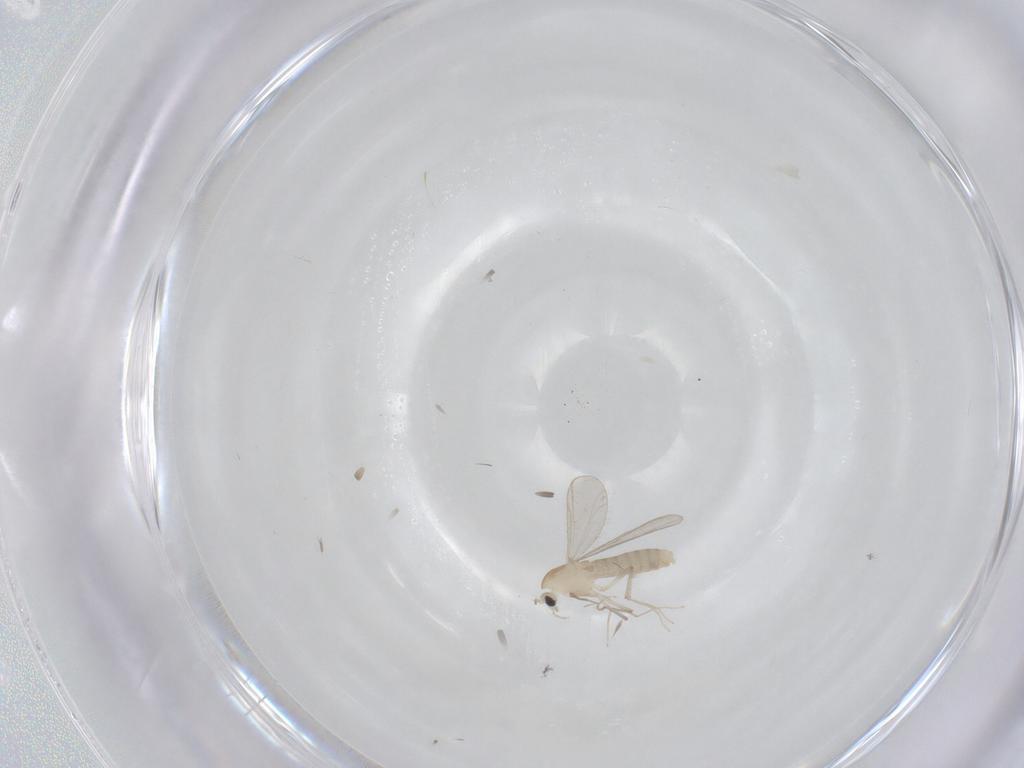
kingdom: Animalia
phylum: Arthropoda
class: Insecta
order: Diptera
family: Chironomidae
